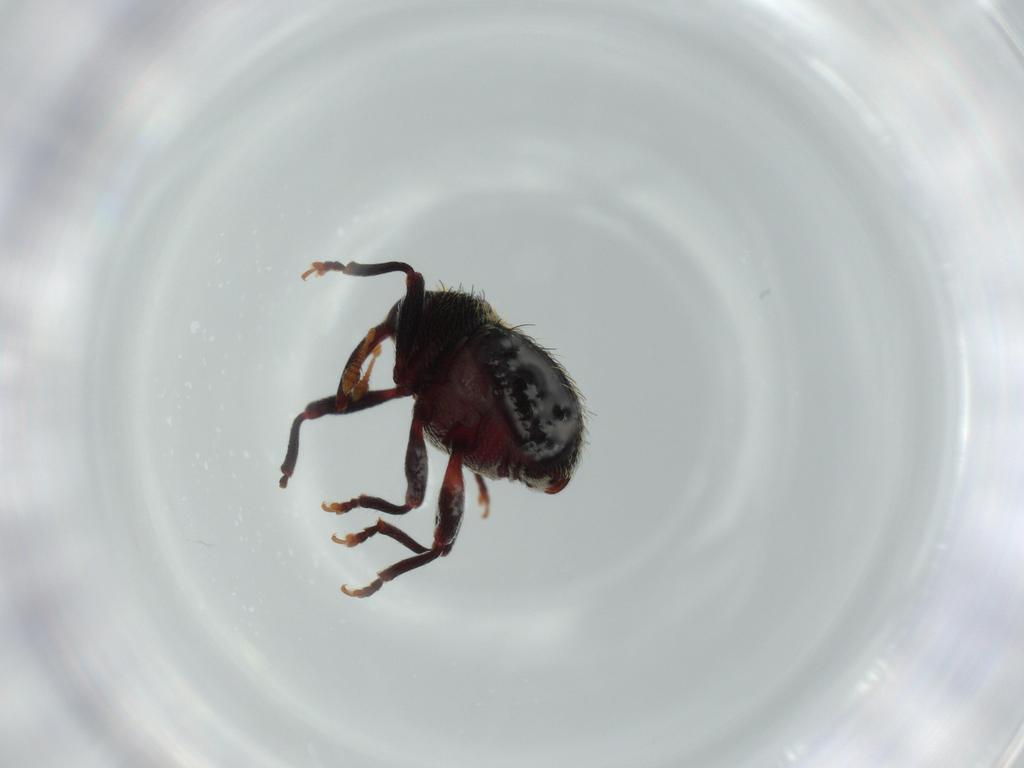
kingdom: Animalia
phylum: Arthropoda
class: Insecta
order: Coleoptera
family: Curculionidae
